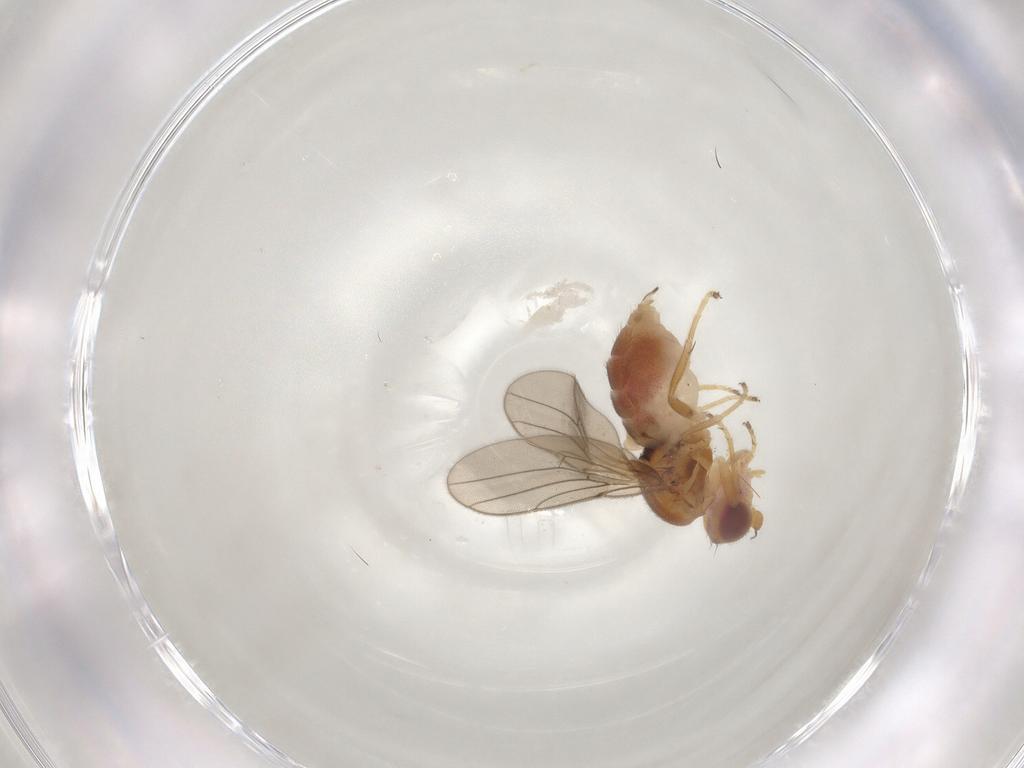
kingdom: Animalia
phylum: Arthropoda
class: Insecta
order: Diptera
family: Chloropidae
